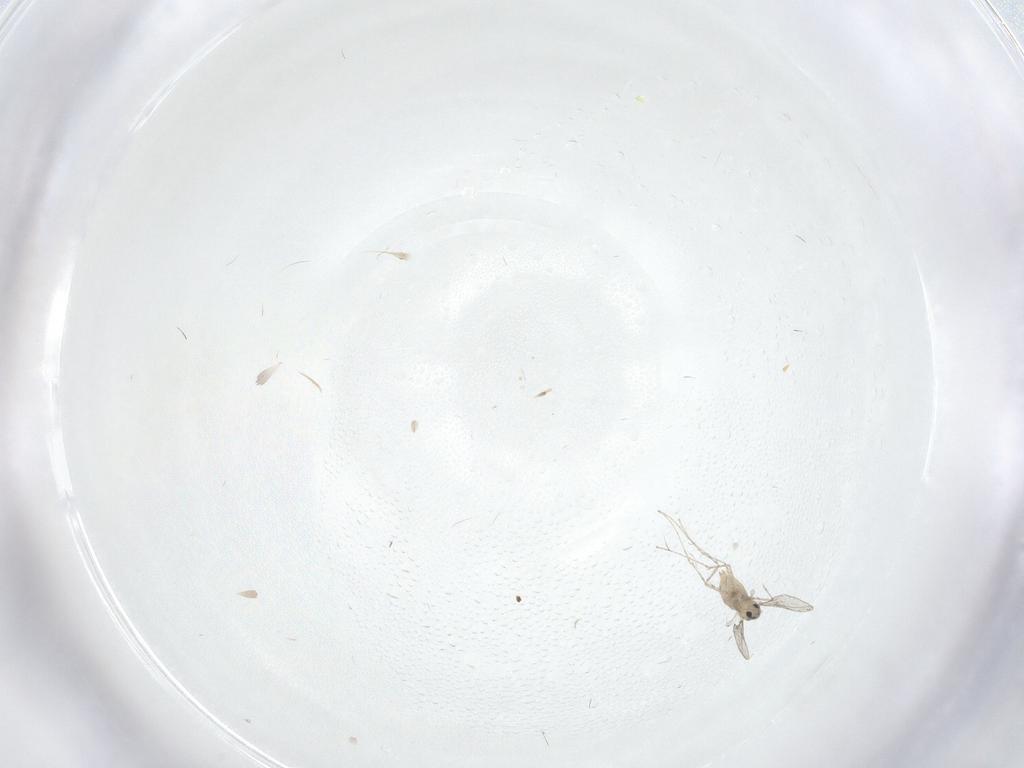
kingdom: Animalia
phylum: Arthropoda
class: Insecta
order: Diptera
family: Cecidomyiidae
